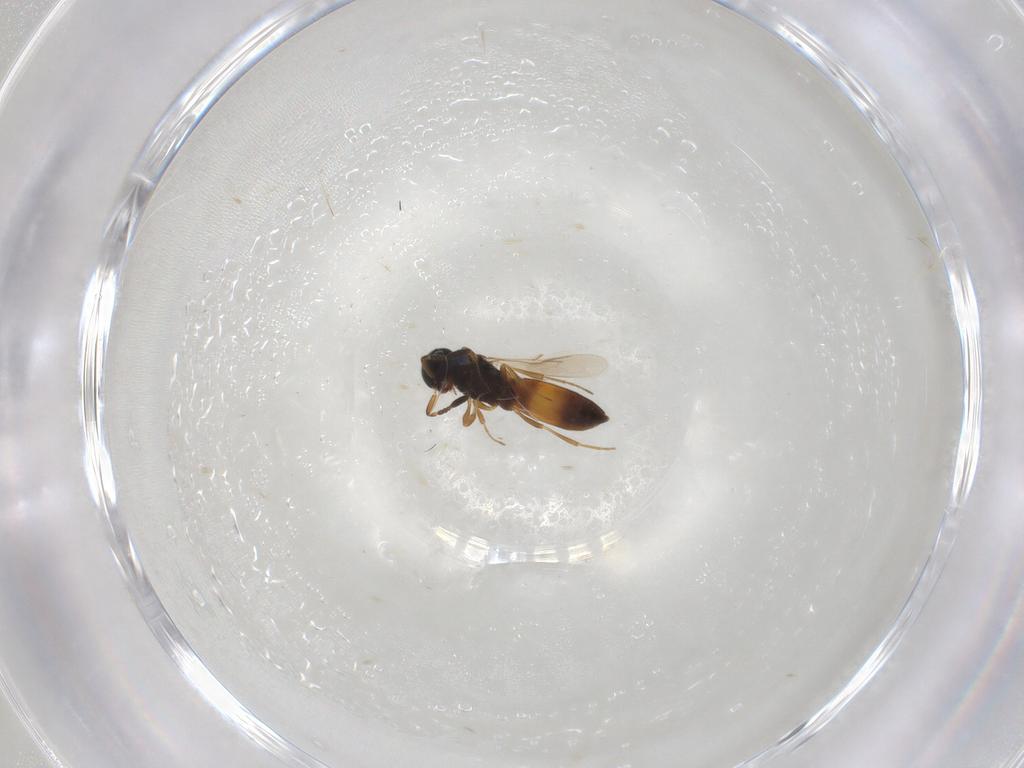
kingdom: Animalia
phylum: Arthropoda
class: Insecta
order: Hymenoptera
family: Scelionidae
